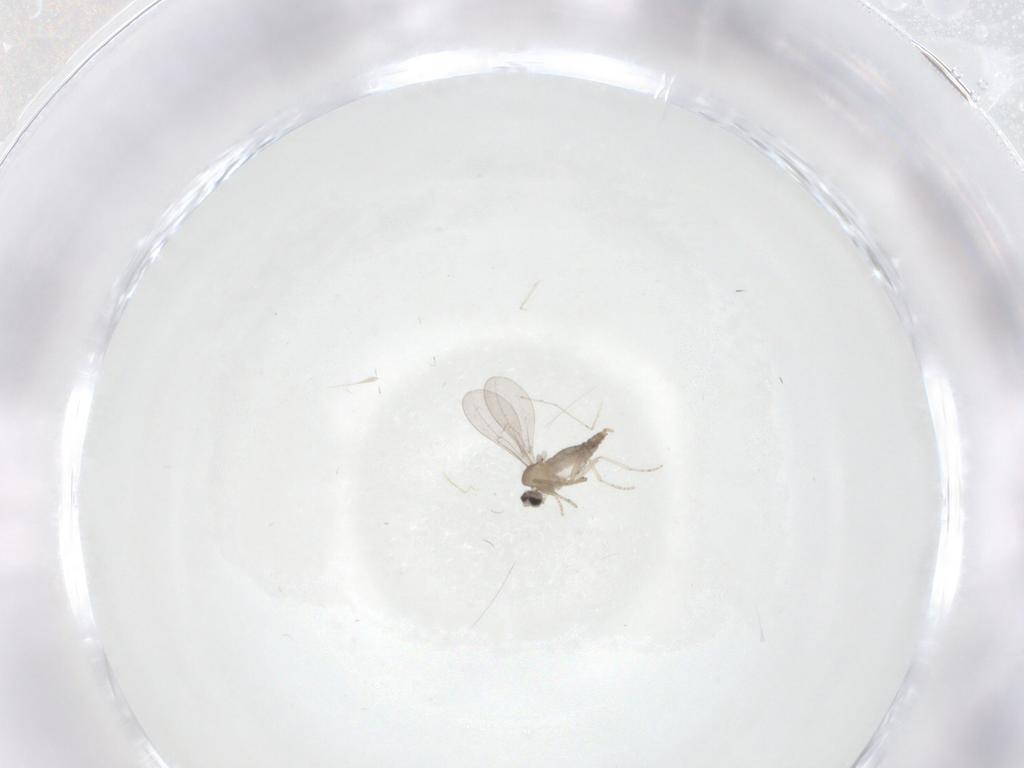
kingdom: Animalia
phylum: Arthropoda
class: Insecta
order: Diptera
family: Cecidomyiidae
